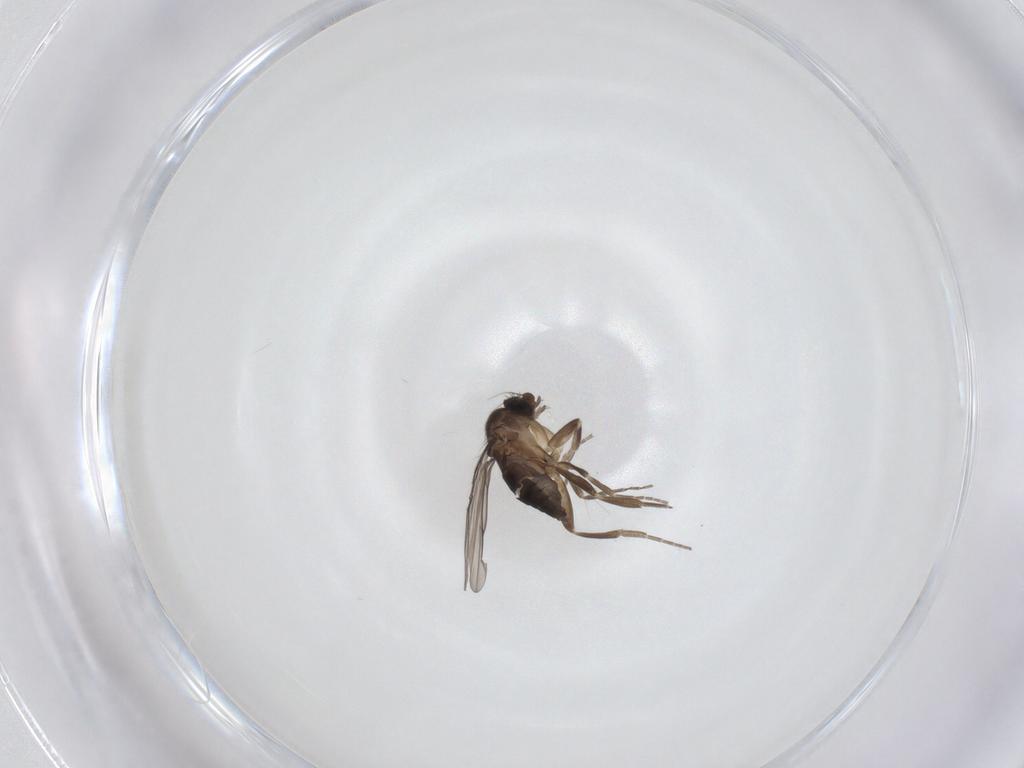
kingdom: Animalia
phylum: Arthropoda
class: Insecta
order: Diptera
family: Phoridae
